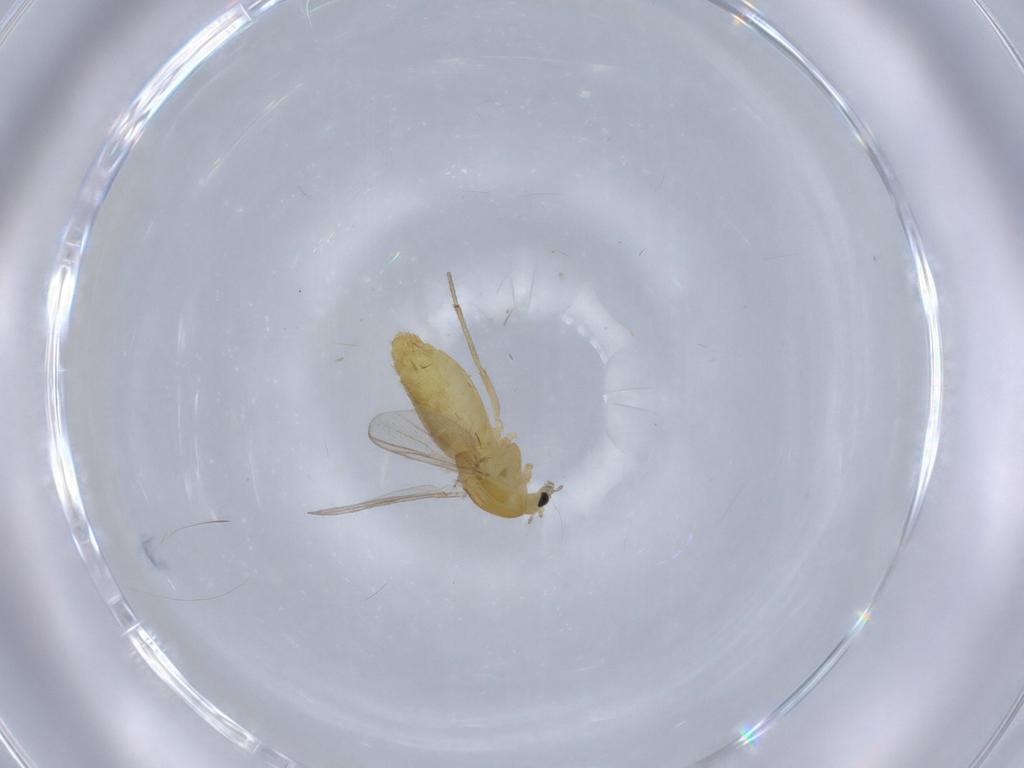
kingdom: Animalia
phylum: Arthropoda
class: Insecta
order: Diptera
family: Chironomidae
